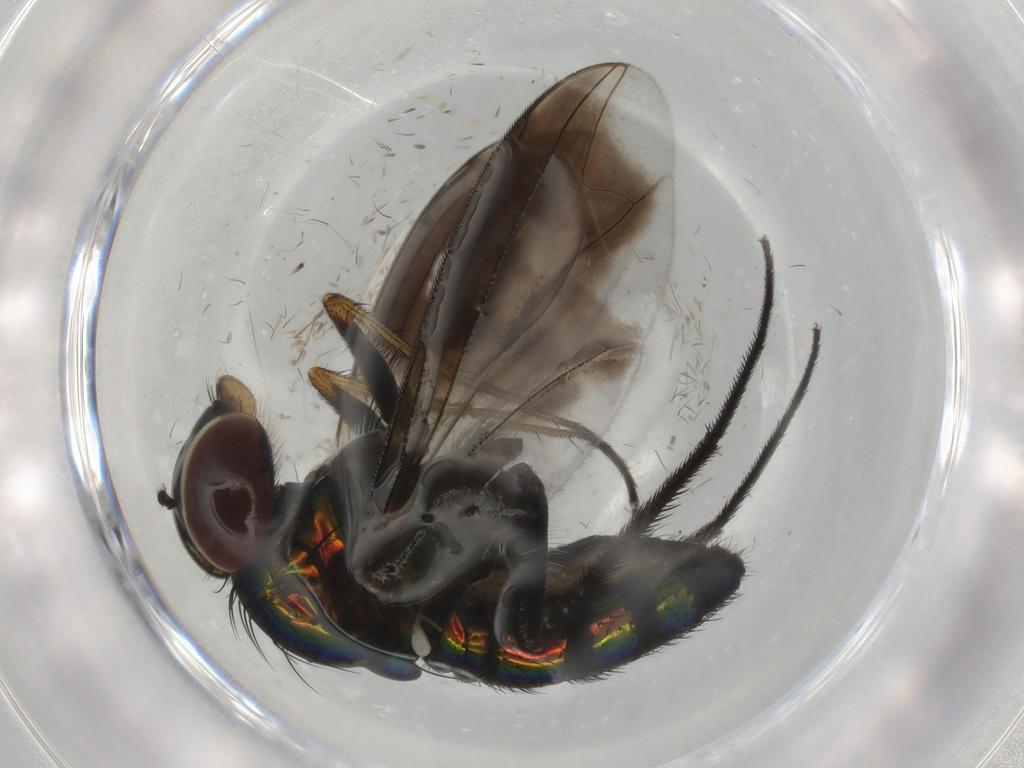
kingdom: Animalia
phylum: Arthropoda
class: Insecta
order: Diptera
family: Dolichopodidae
